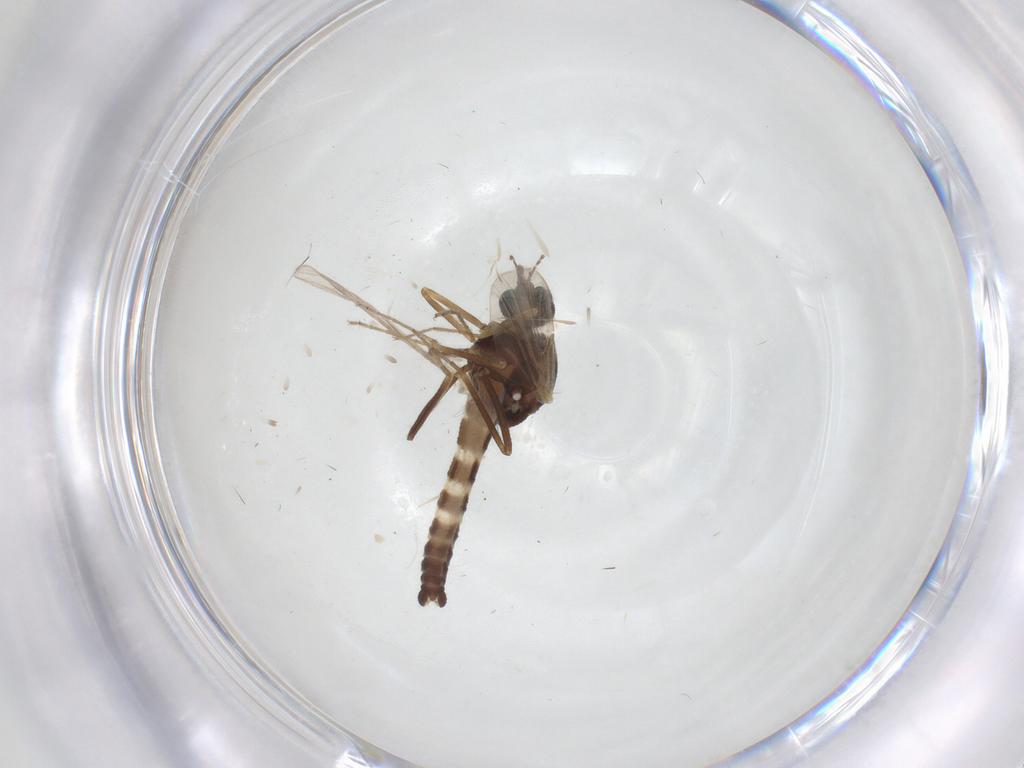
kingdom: Animalia
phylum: Arthropoda
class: Insecta
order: Diptera
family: Ceratopogonidae
